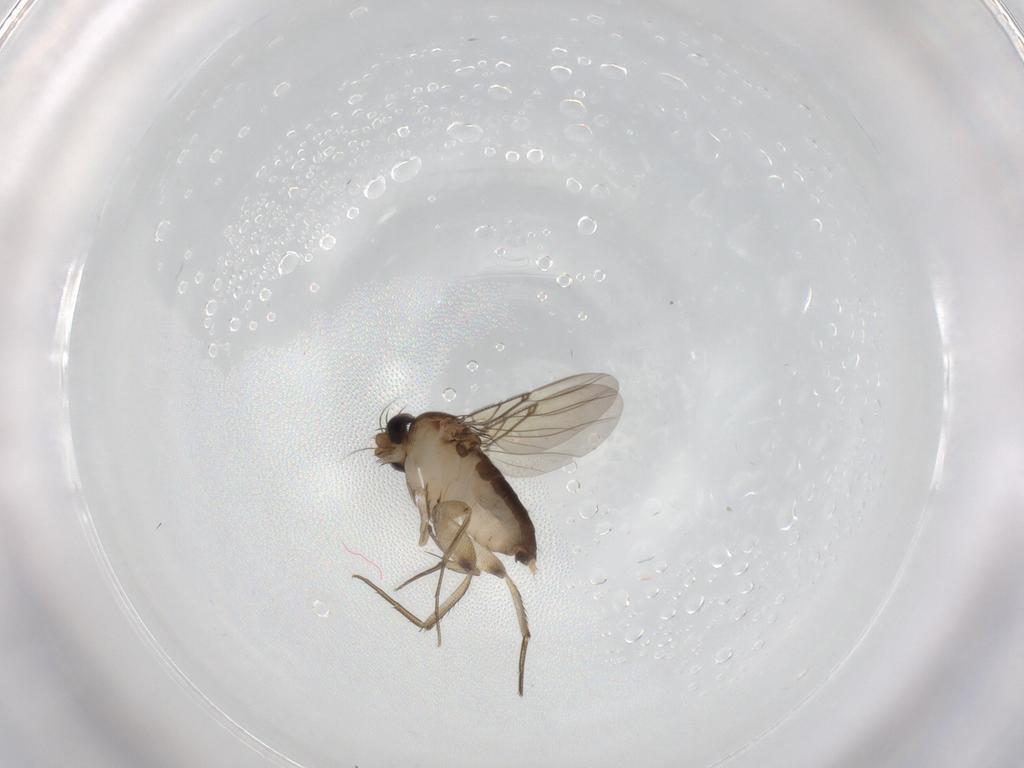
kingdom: Animalia
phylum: Arthropoda
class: Insecta
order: Diptera
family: Phoridae
